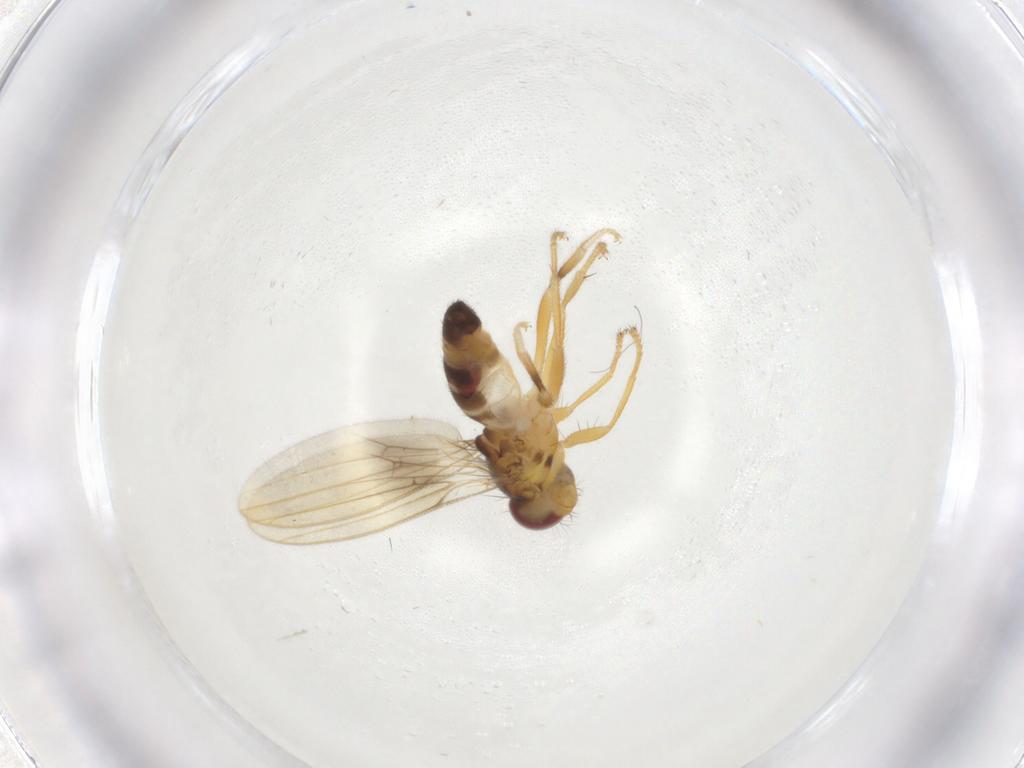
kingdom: Animalia
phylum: Arthropoda
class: Insecta
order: Diptera
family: Periscelididae
